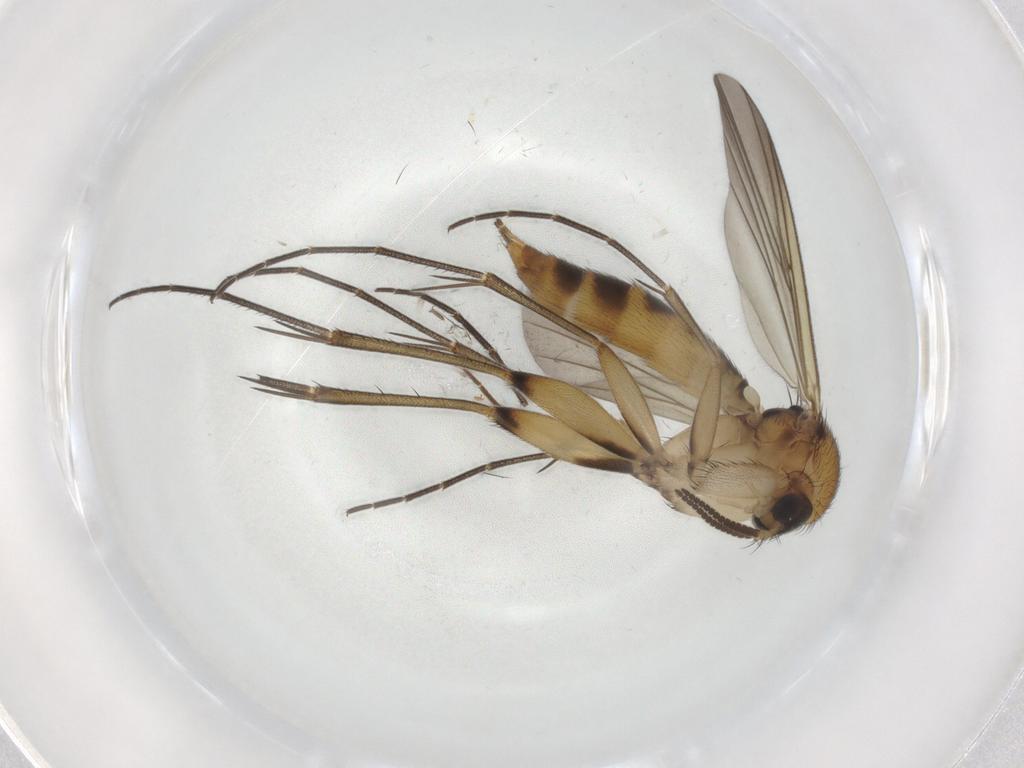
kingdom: Animalia
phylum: Arthropoda
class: Insecta
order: Diptera
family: Mycetophilidae
